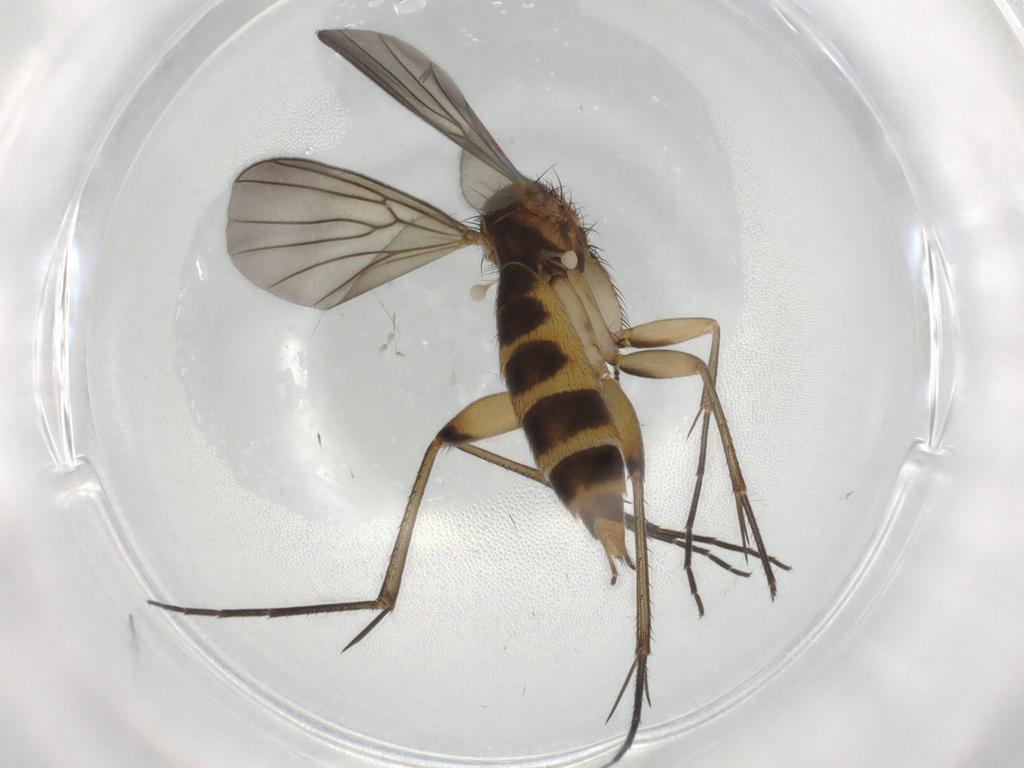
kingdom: Animalia
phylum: Arthropoda
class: Insecta
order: Diptera
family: Mycetophilidae
